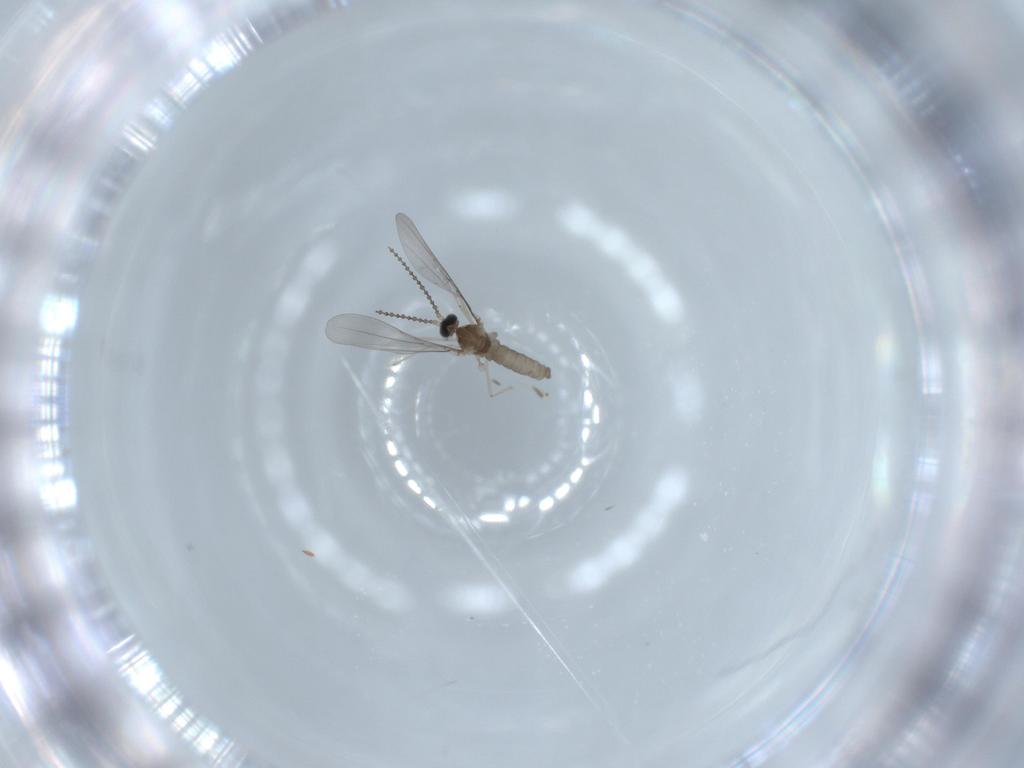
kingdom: Animalia
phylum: Arthropoda
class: Insecta
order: Diptera
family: Cecidomyiidae
